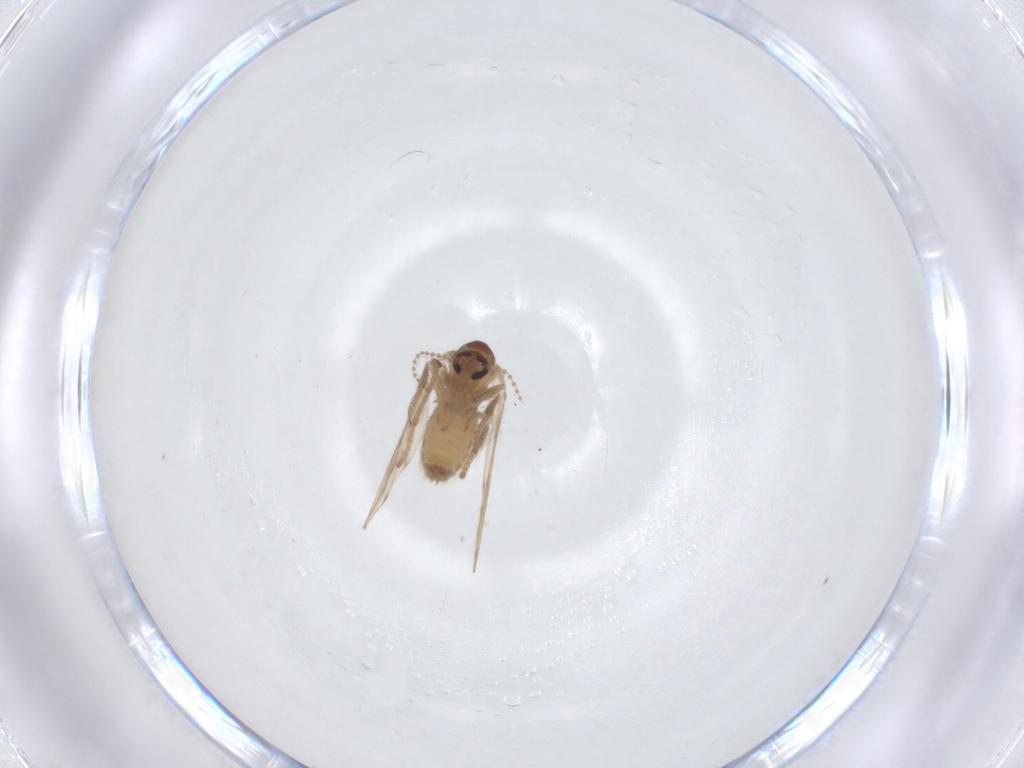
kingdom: Animalia
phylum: Arthropoda
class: Insecta
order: Diptera
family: Psychodidae
